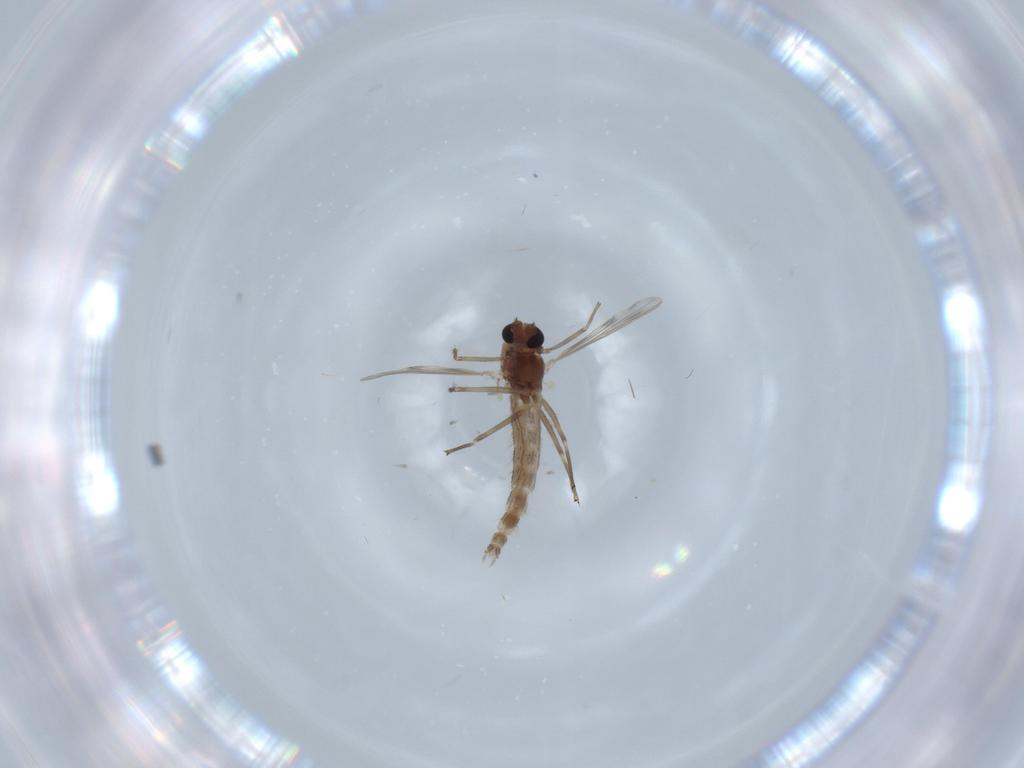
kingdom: Animalia
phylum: Arthropoda
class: Insecta
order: Diptera
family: Chironomidae
